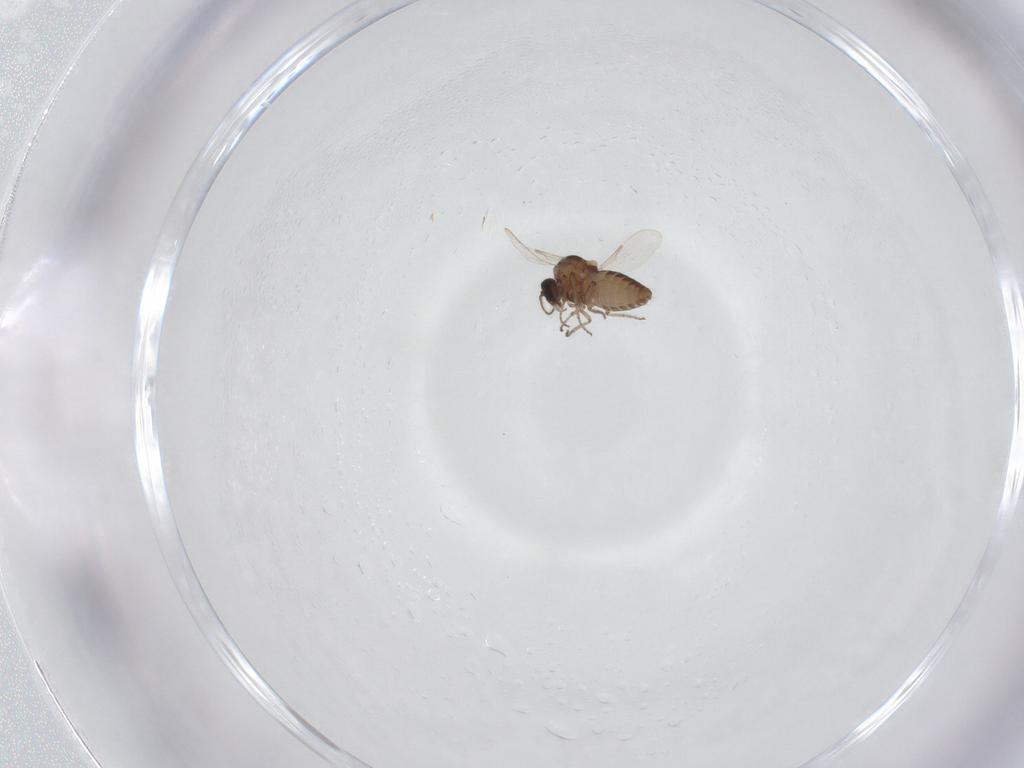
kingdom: Animalia
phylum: Arthropoda
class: Insecta
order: Diptera
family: Ceratopogonidae
